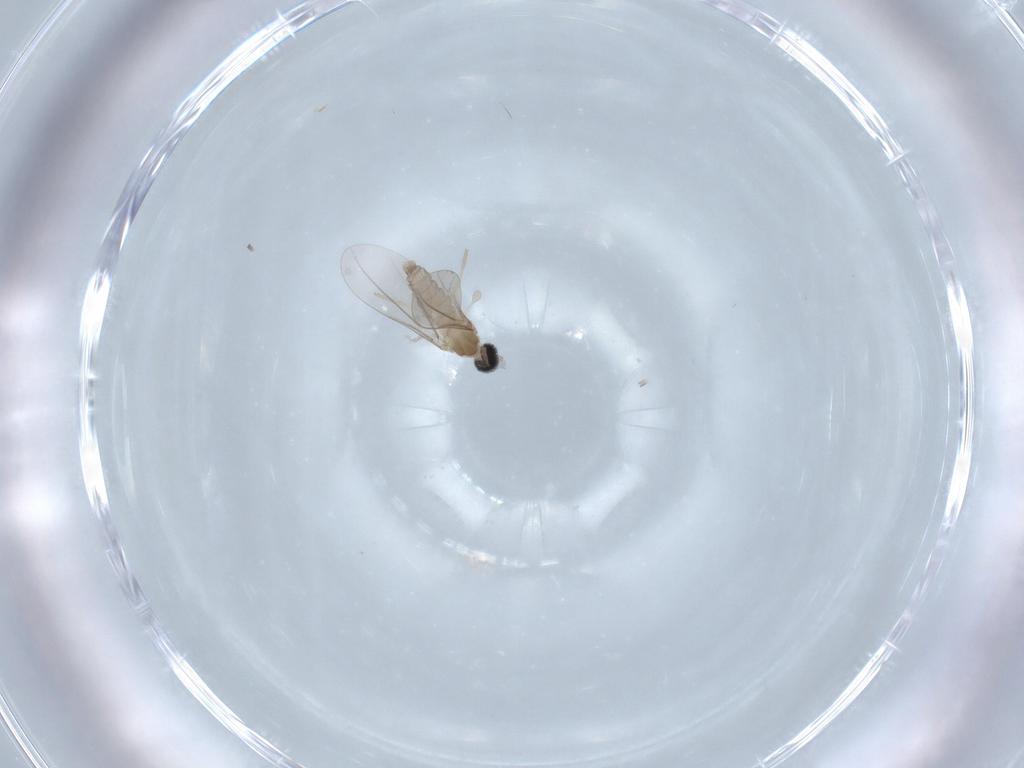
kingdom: Animalia
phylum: Arthropoda
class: Insecta
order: Diptera
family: Cecidomyiidae
